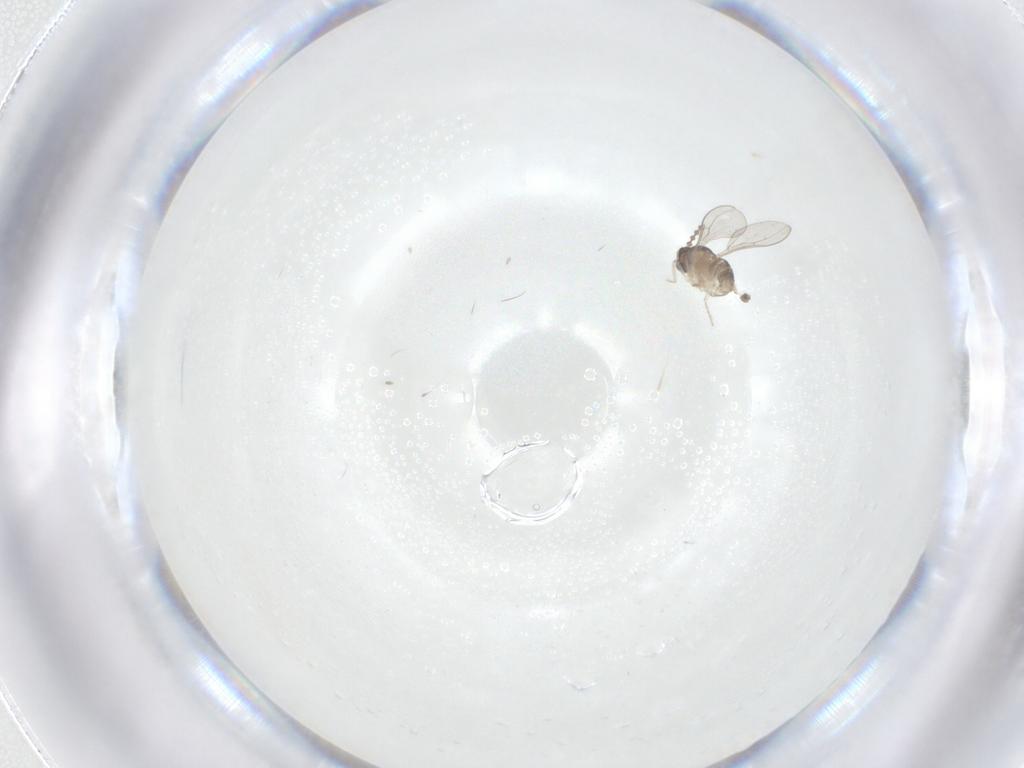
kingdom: Animalia
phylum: Arthropoda
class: Insecta
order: Diptera
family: Cecidomyiidae
